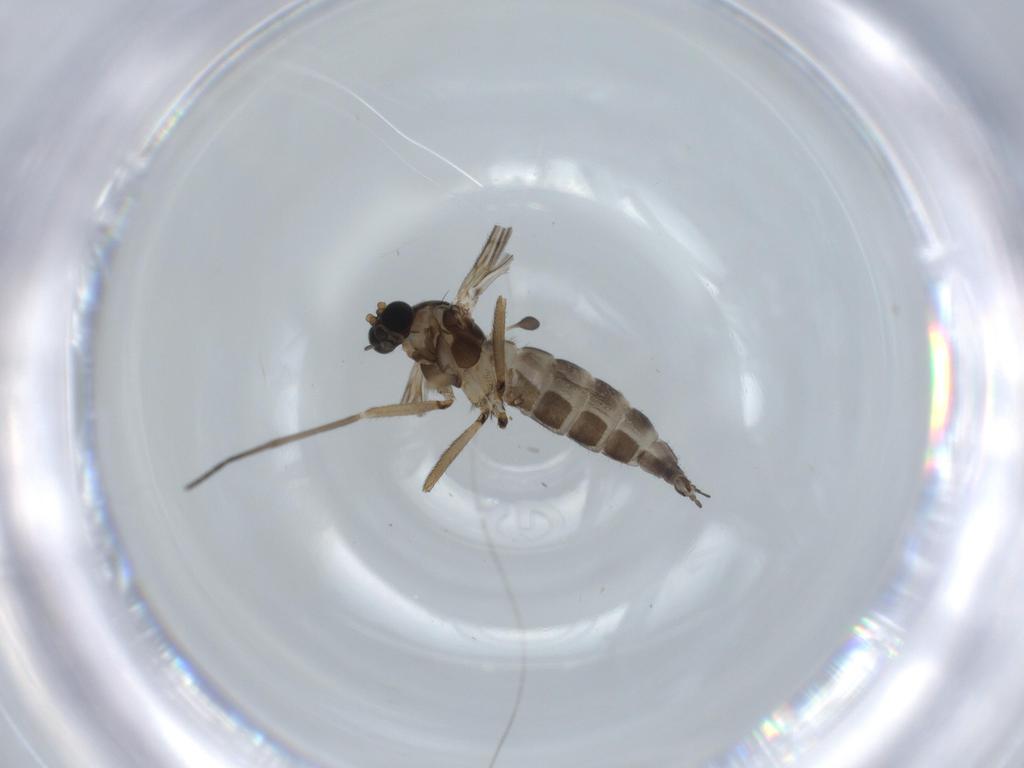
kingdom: Animalia
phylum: Arthropoda
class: Insecta
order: Diptera
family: Sciaridae
